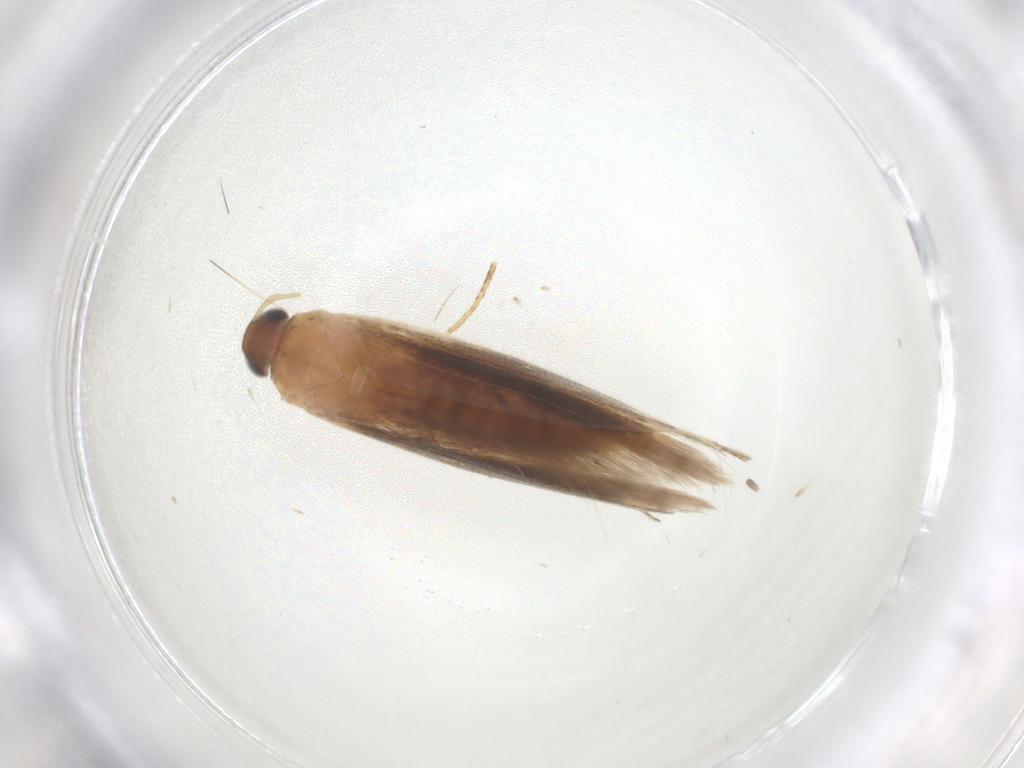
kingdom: Animalia
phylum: Arthropoda
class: Insecta
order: Lepidoptera
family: Gelechiidae
